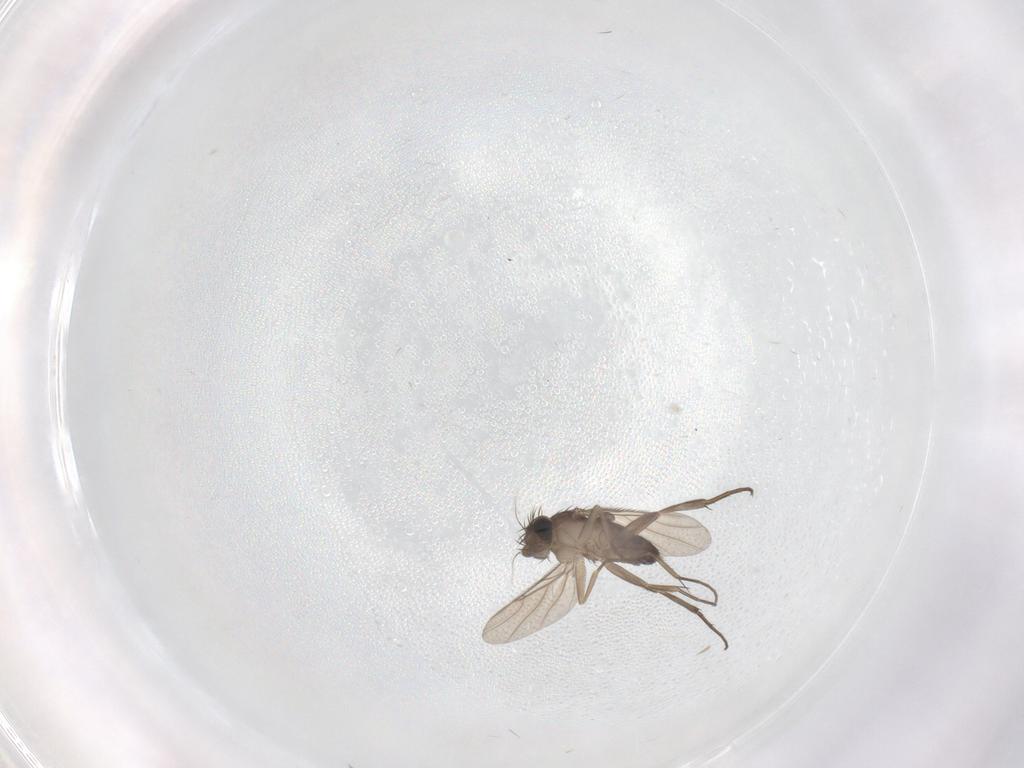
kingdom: Animalia
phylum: Arthropoda
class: Insecta
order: Diptera
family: Phoridae
